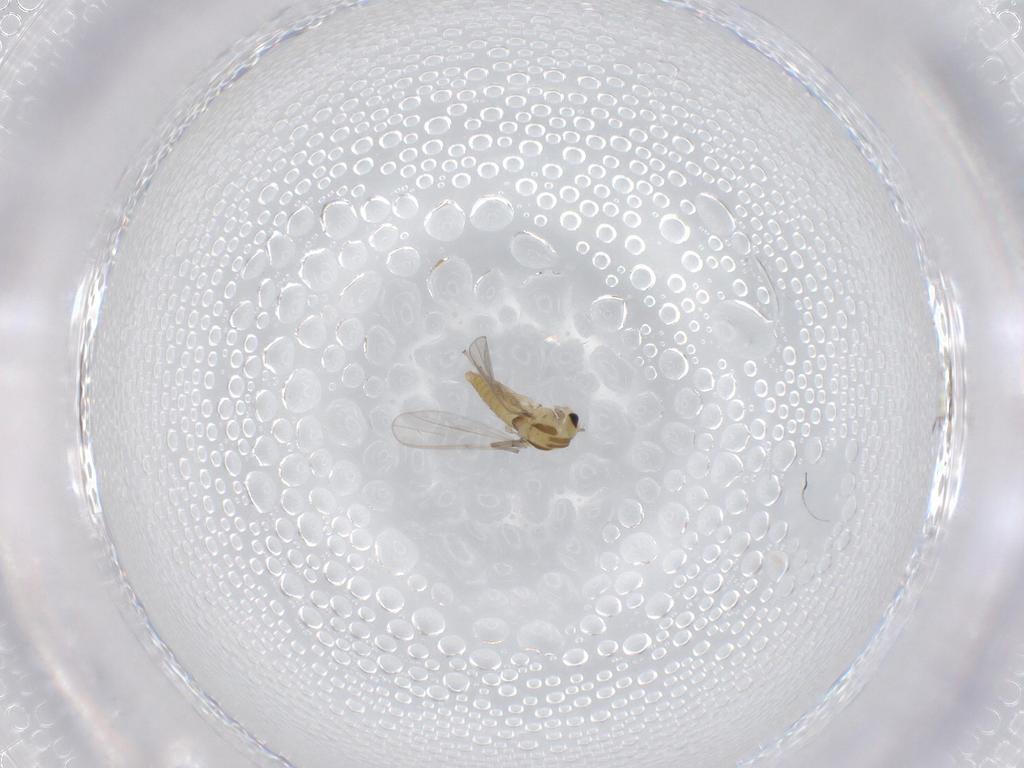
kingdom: Animalia
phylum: Arthropoda
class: Insecta
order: Diptera
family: Chironomidae
